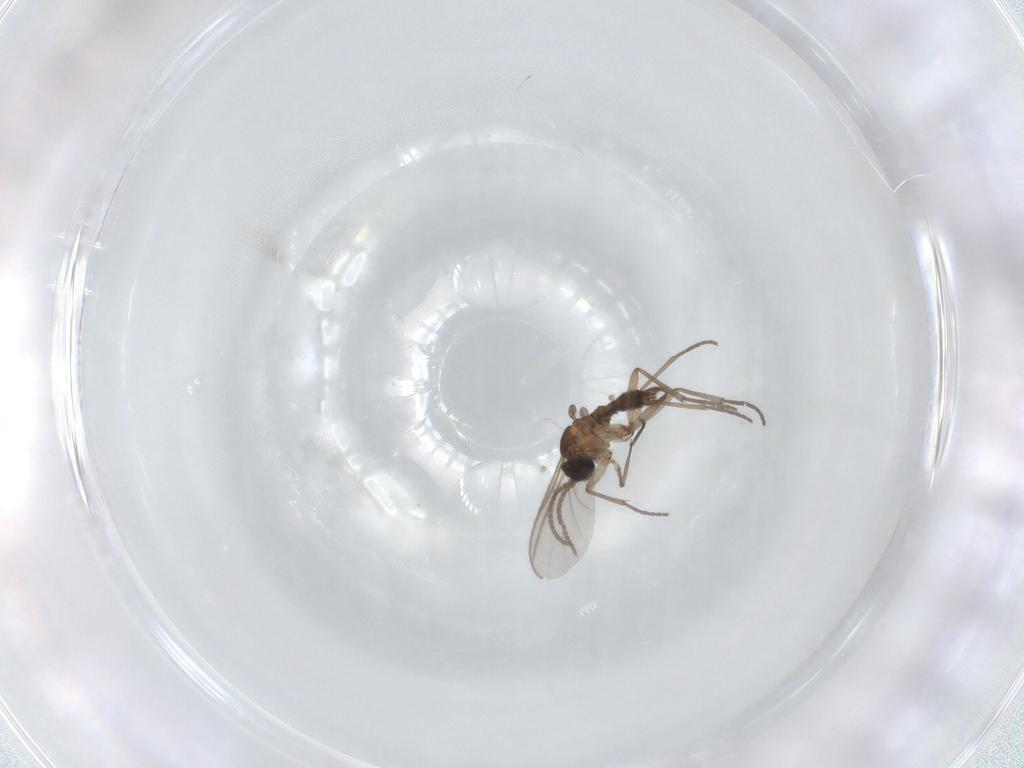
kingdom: Animalia
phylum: Arthropoda
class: Insecta
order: Diptera
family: Sciaridae
